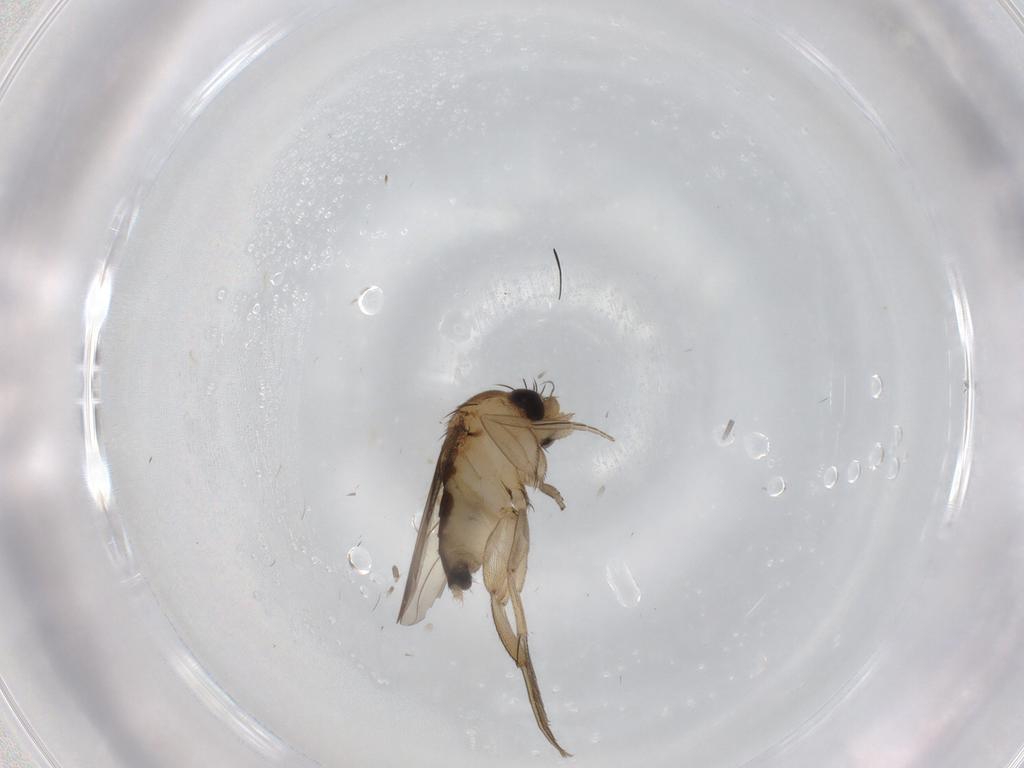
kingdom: Animalia
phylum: Arthropoda
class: Insecta
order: Diptera
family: Phoridae
